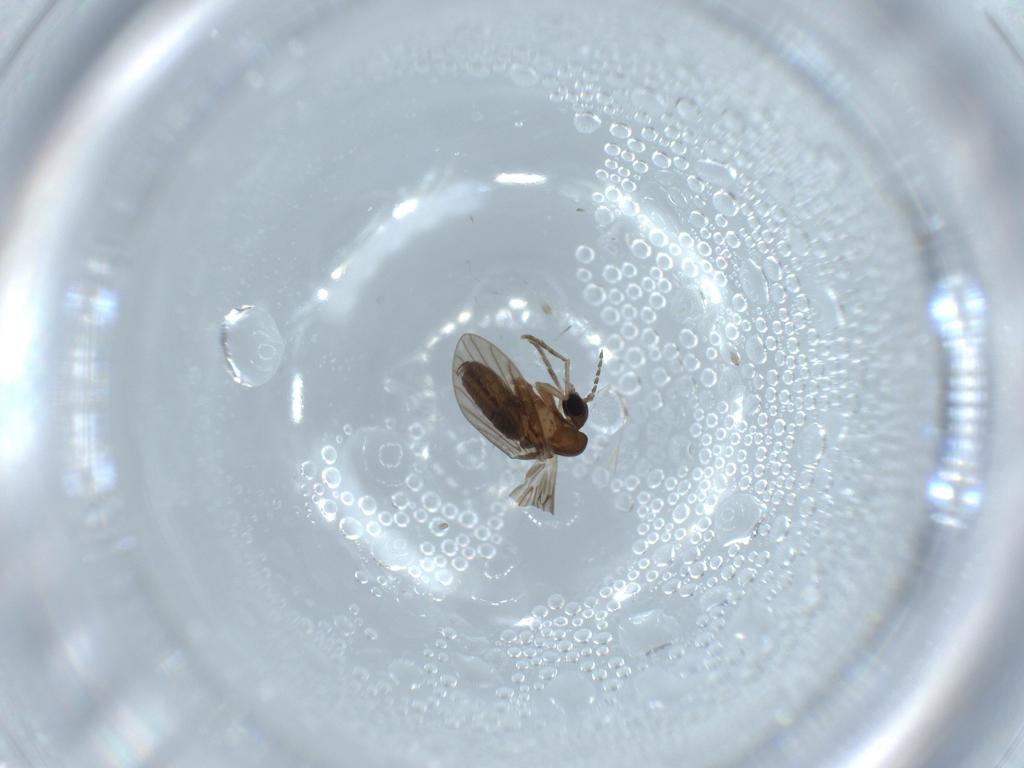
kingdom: Animalia
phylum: Arthropoda
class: Insecta
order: Diptera
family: Psychodidae
